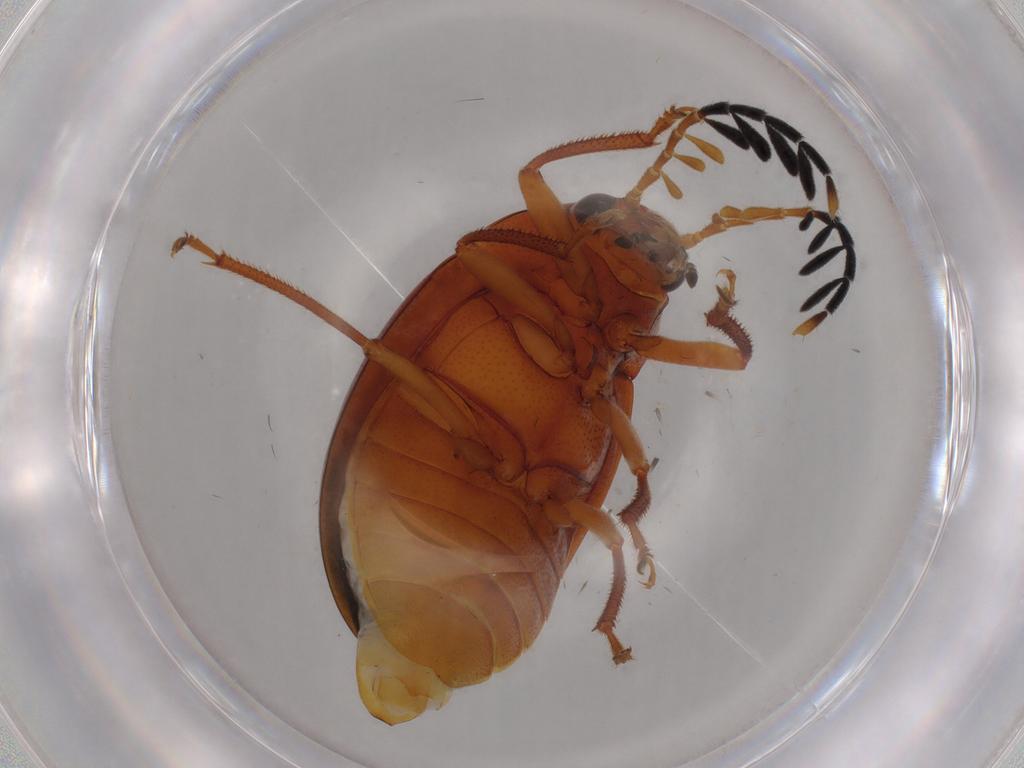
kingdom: Animalia
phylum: Arthropoda
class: Insecta
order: Coleoptera
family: Ptilodactylidae
